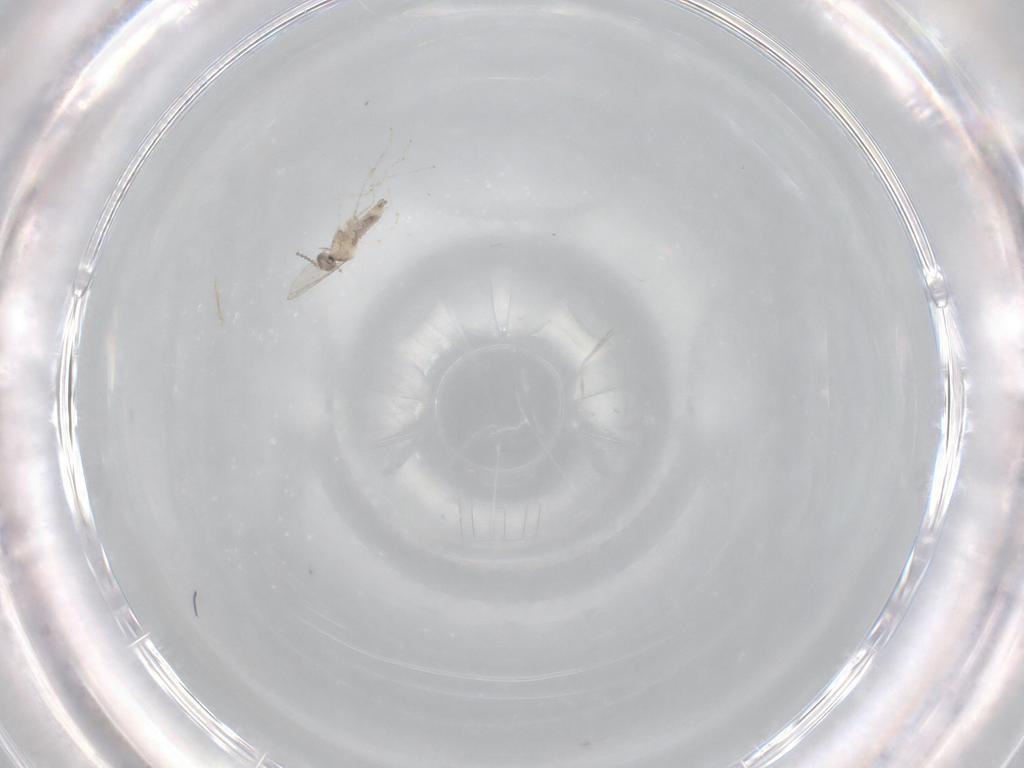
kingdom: Animalia
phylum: Arthropoda
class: Insecta
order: Diptera
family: Cecidomyiidae
